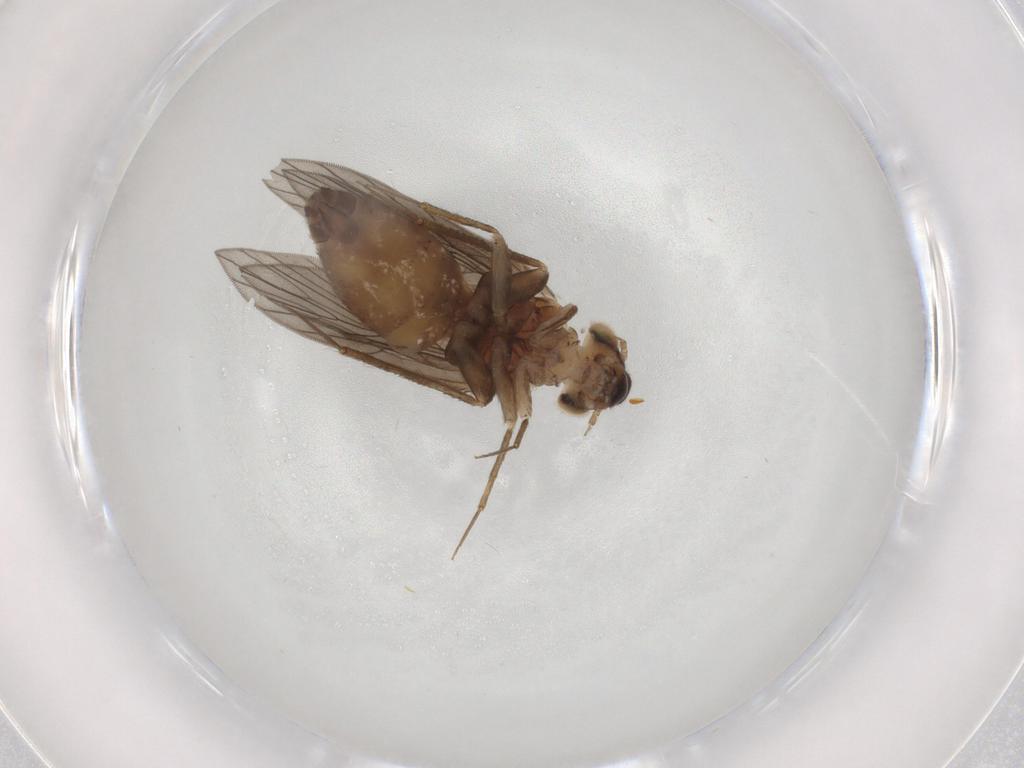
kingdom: Animalia
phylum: Arthropoda
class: Insecta
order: Psocodea
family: Lepidopsocidae
